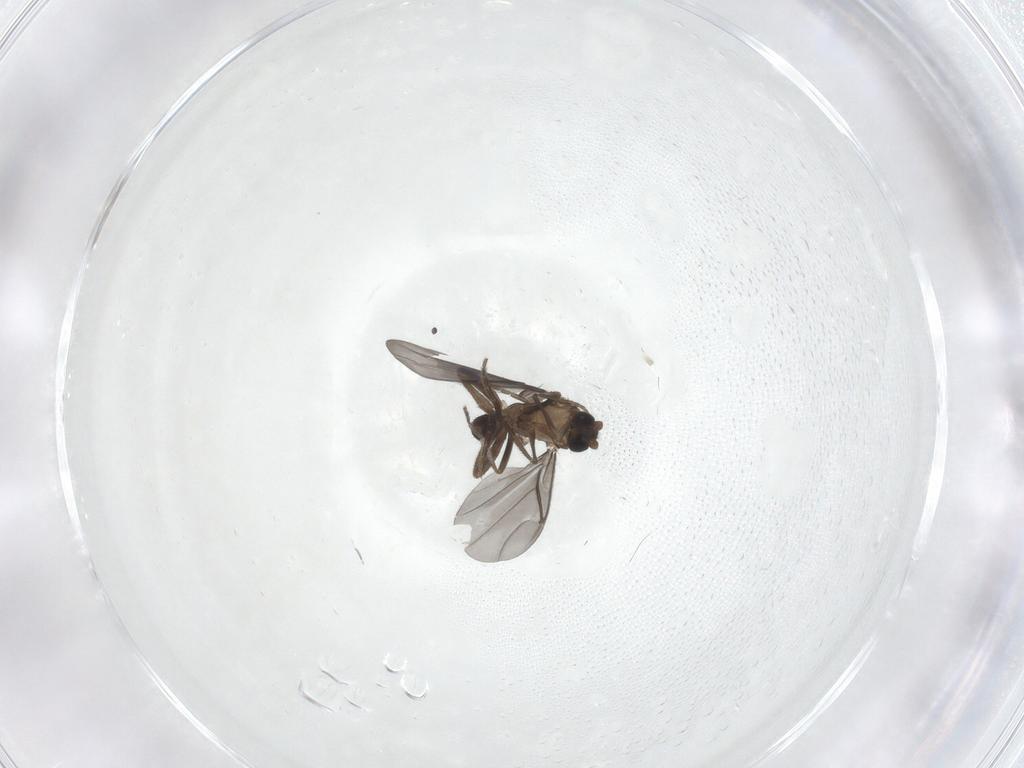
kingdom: Animalia
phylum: Arthropoda
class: Insecta
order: Diptera
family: Phoridae
